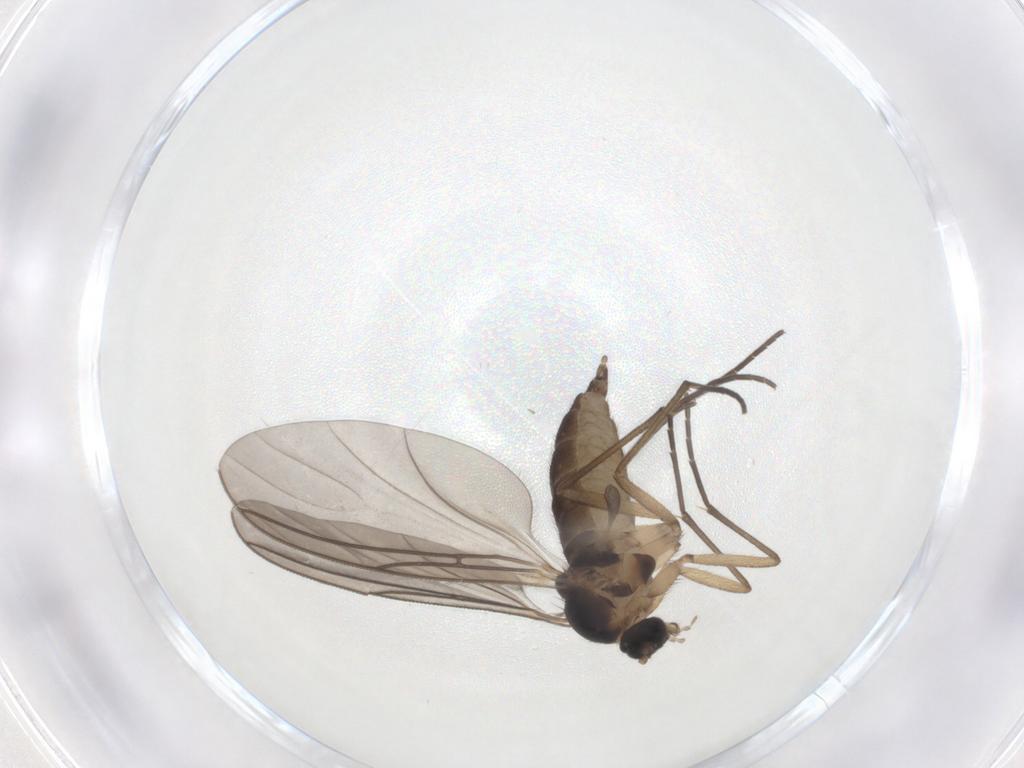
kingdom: Animalia
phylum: Arthropoda
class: Insecta
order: Diptera
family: Sciaridae
